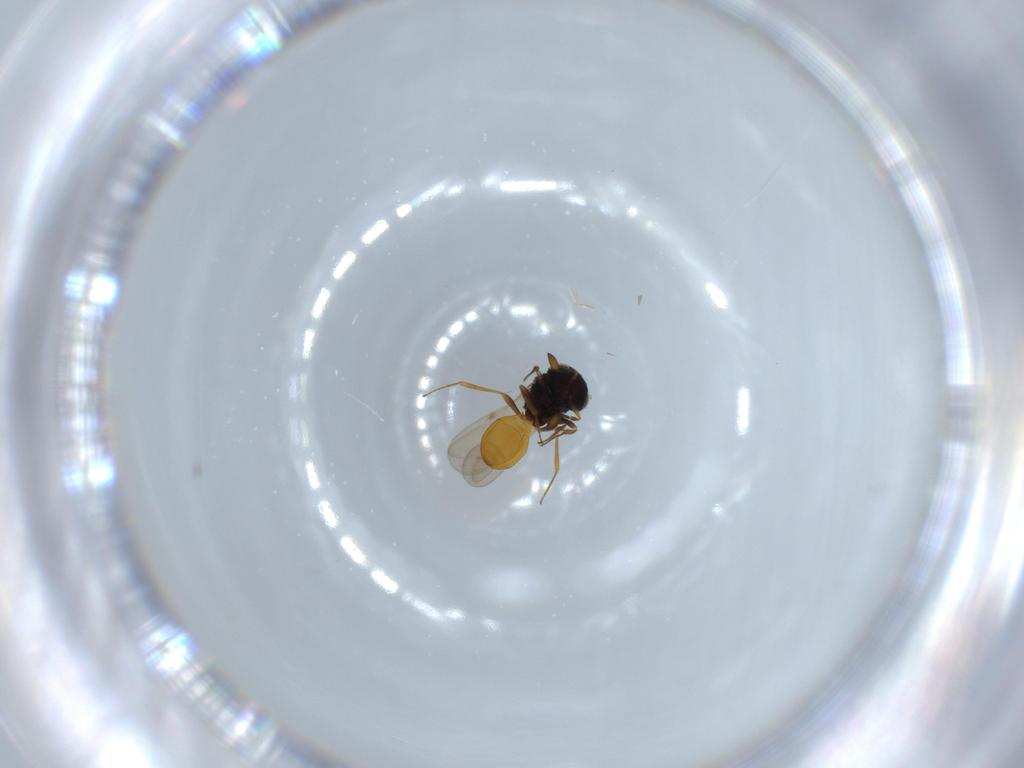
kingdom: Animalia
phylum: Arthropoda
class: Insecta
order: Hymenoptera
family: Scelionidae
